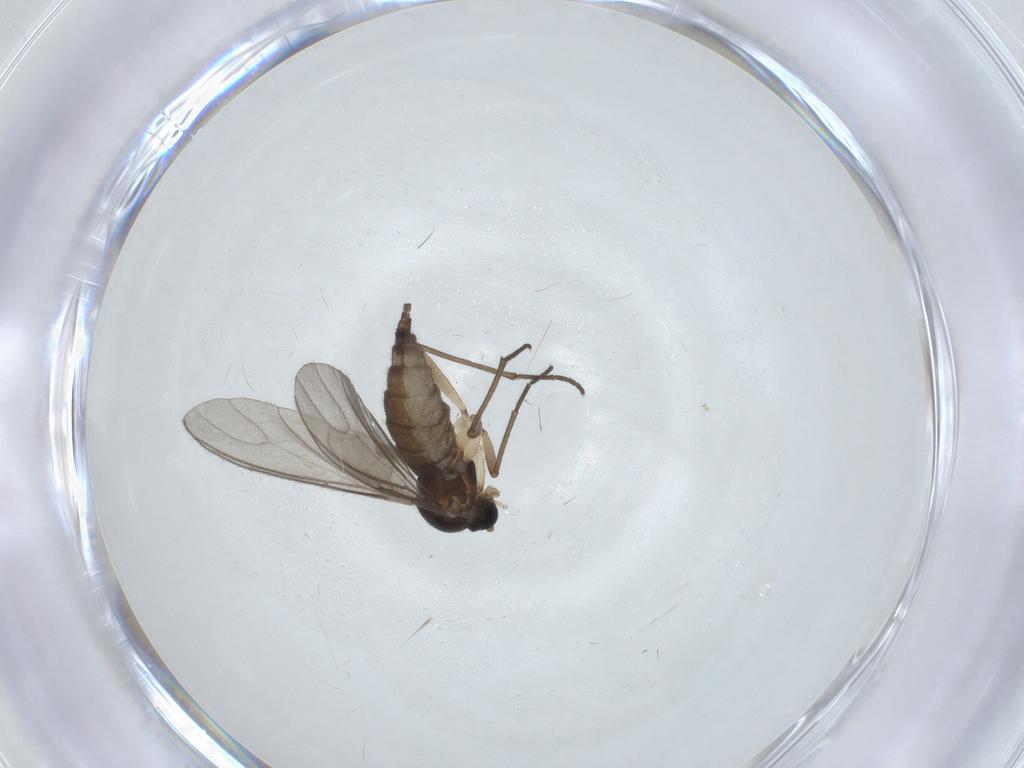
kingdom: Animalia
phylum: Arthropoda
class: Insecta
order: Diptera
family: Sciaridae
